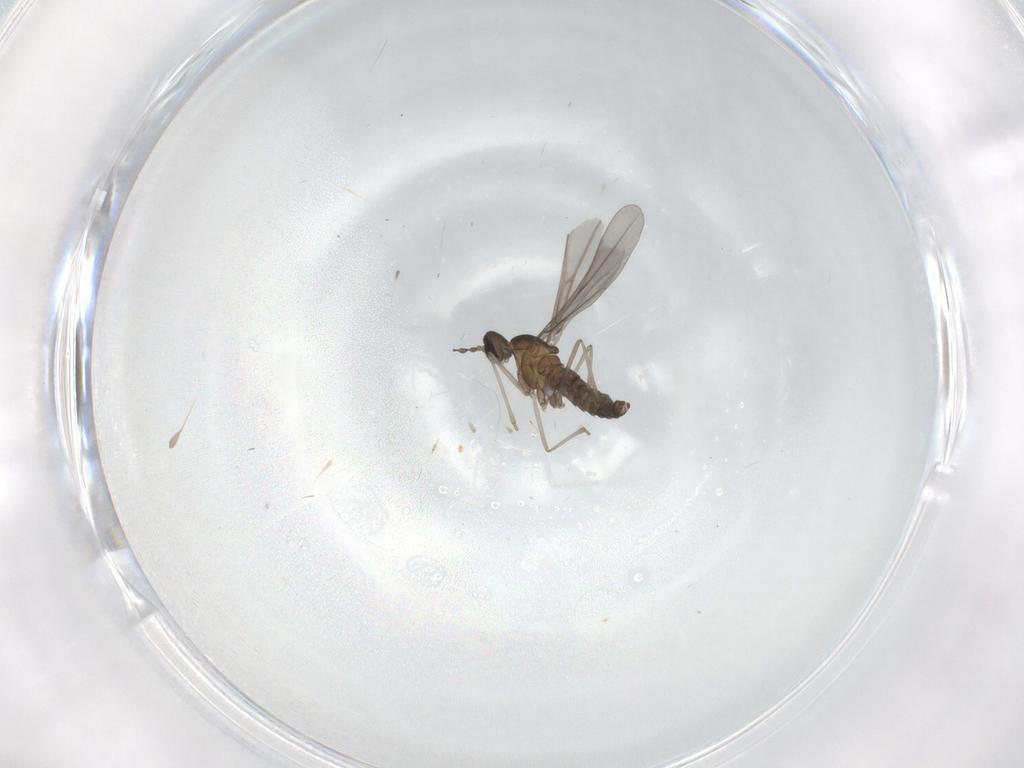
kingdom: Animalia
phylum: Arthropoda
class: Insecta
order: Diptera
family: Cecidomyiidae
